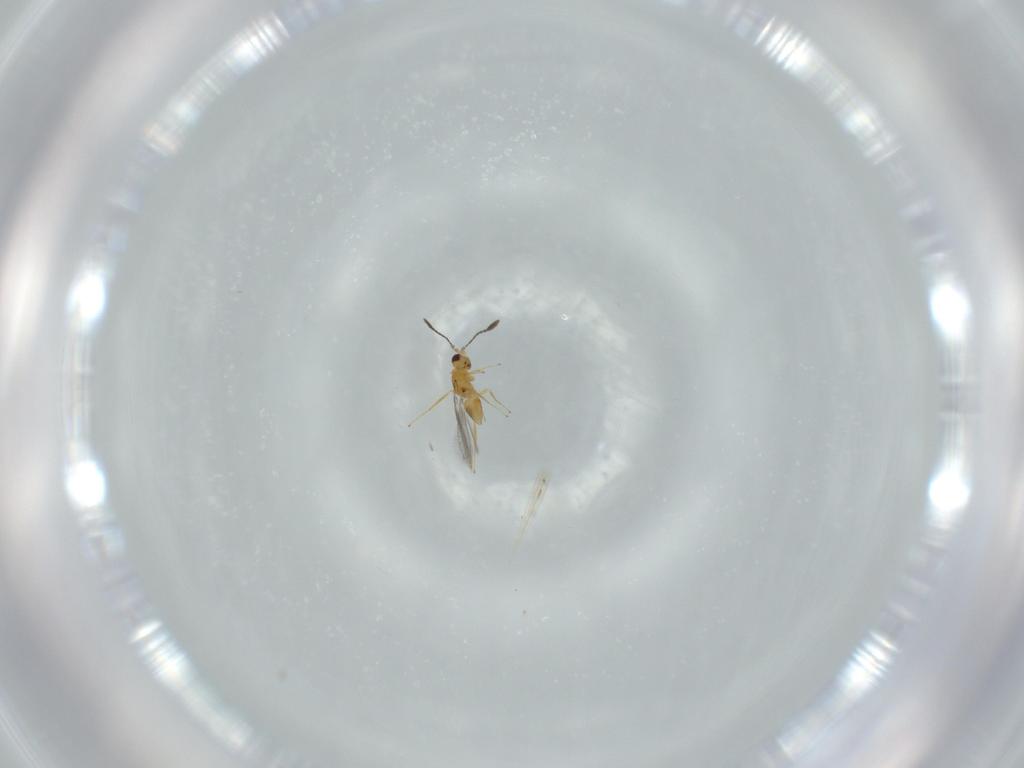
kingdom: Animalia
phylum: Arthropoda
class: Insecta
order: Hymenoptera
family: Mymaridae
